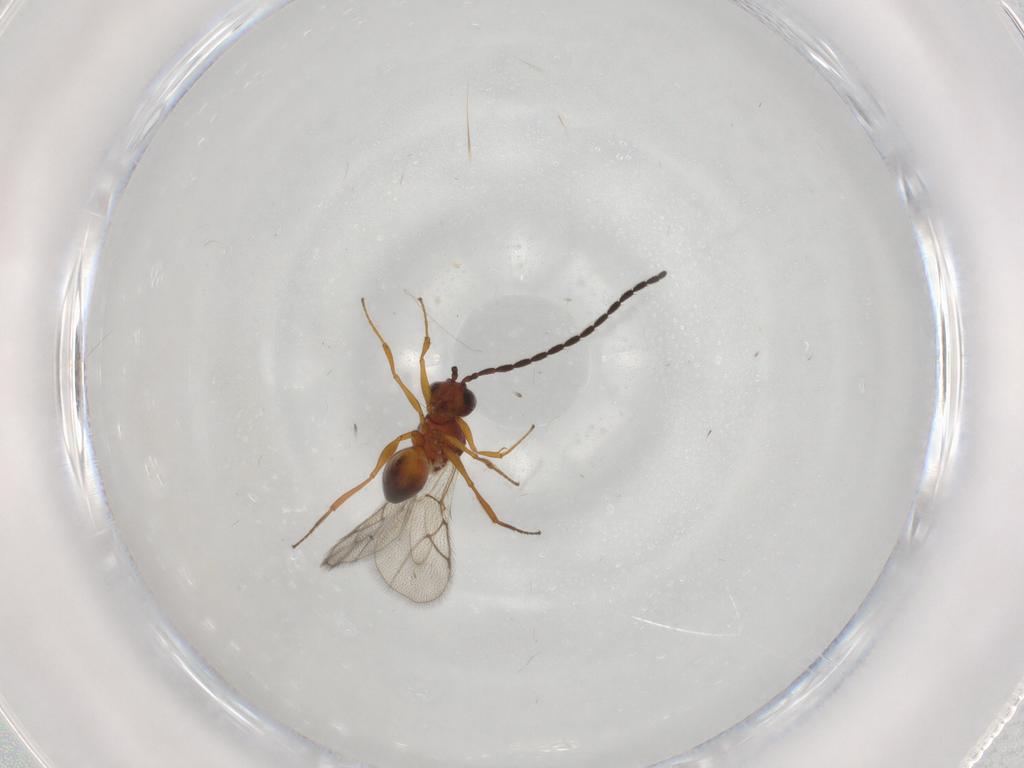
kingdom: Animalia
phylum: Arthropoda
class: Insecta
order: Hymenoptera
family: Figitidae
